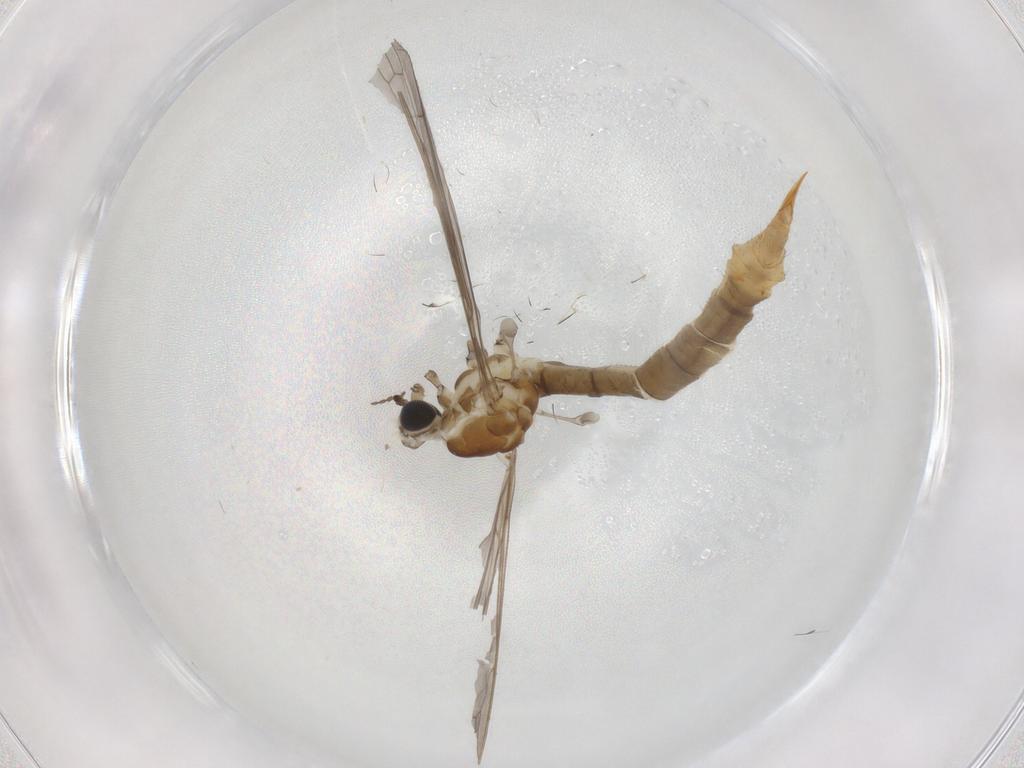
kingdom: Animalia
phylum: Arthropoda
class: Insecta
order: Diptera
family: Limoniidae
